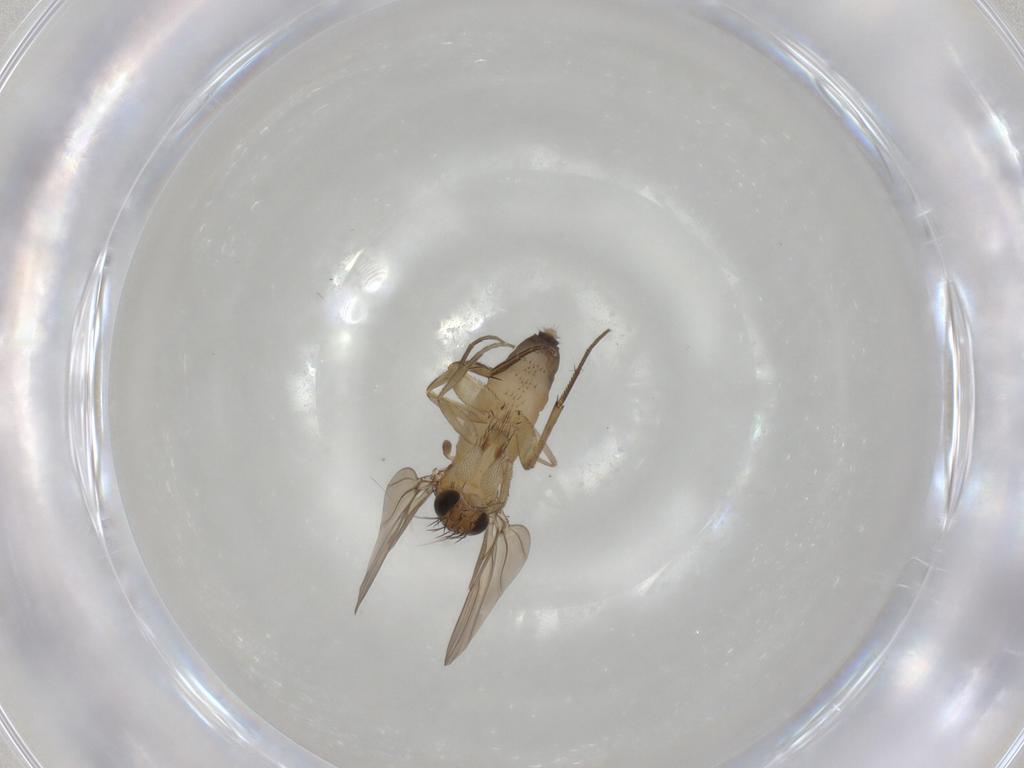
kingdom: Animalia
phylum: Arthropoda
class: Insecta
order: Diptera
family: Phoridae
